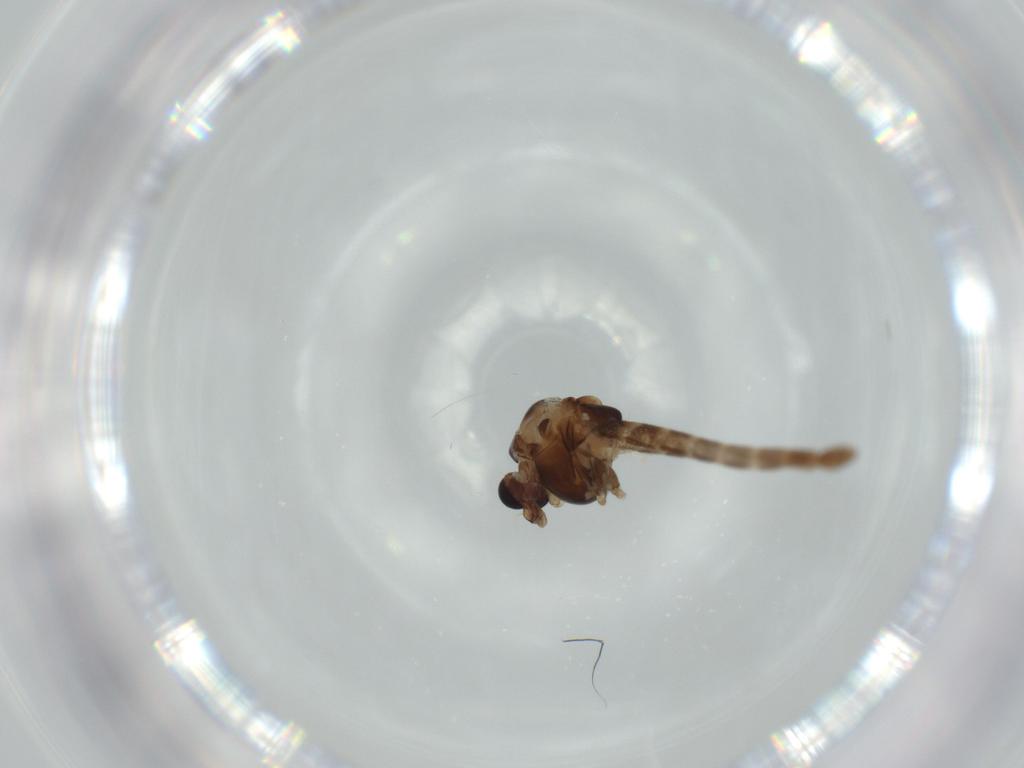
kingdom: Animalia
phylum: Arthropoda
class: Insecta
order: Diptera
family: Chironomidae
